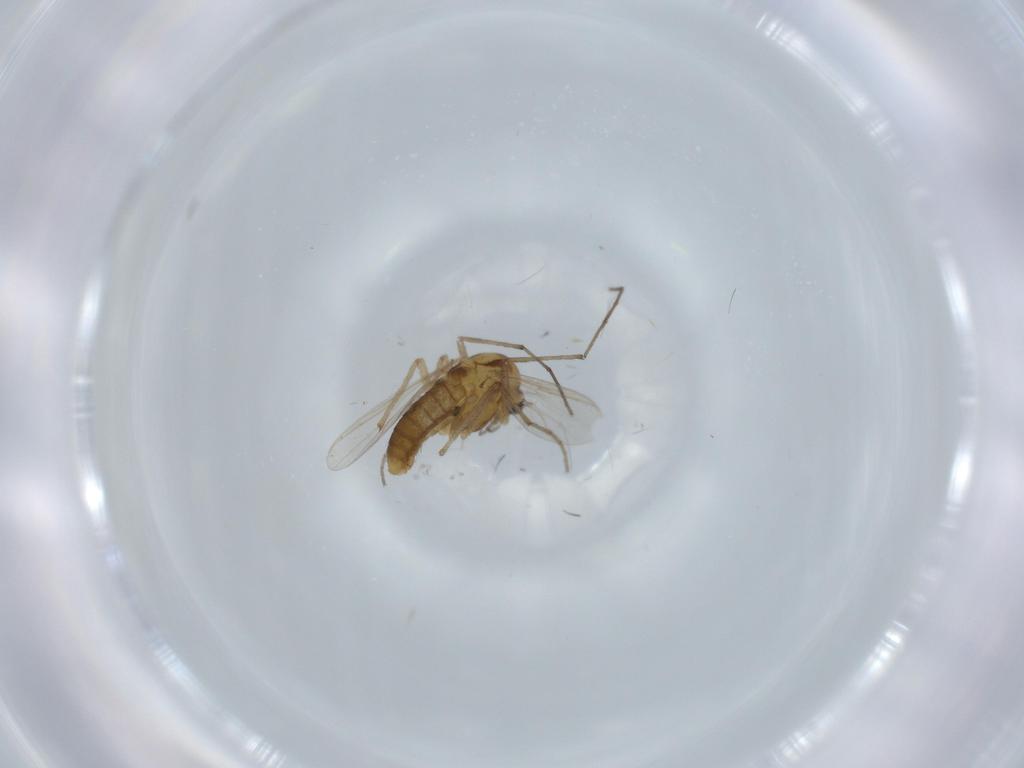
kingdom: Animalia
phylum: Arthropoda
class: Insecta
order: Diptera
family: Chironomidae
